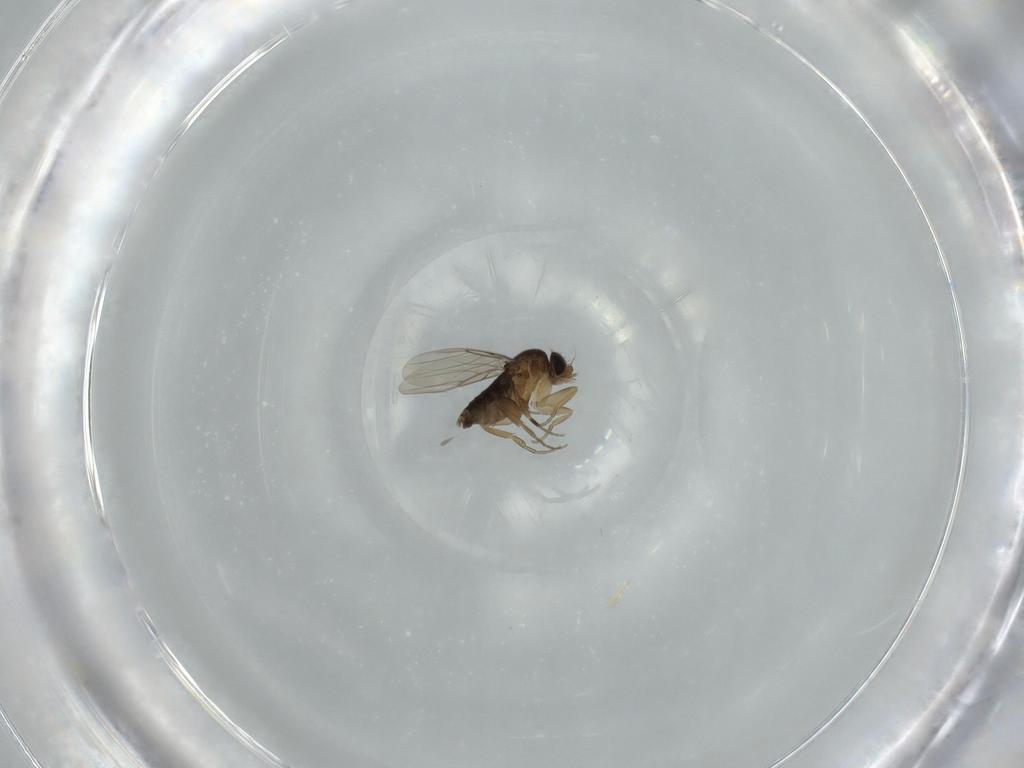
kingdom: Animalia
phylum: Arthropoda
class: Insecta
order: Diptera
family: Phoridae
